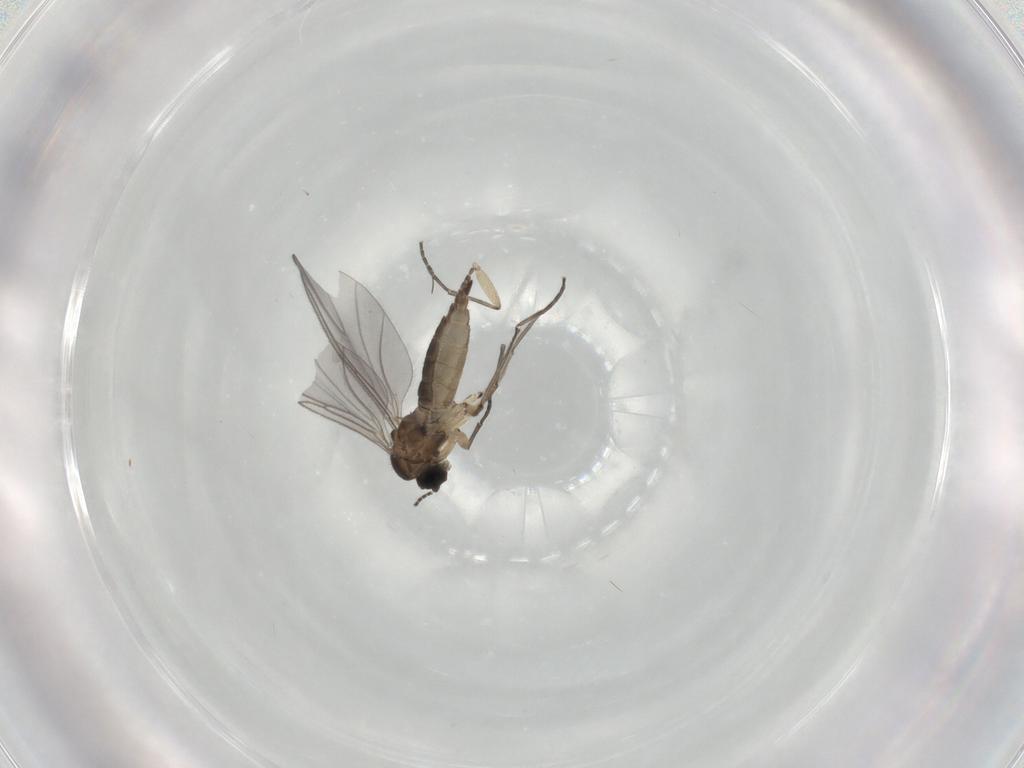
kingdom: Animalia
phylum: Arthropoda
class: Insecta
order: Diptera
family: Sciaridae
